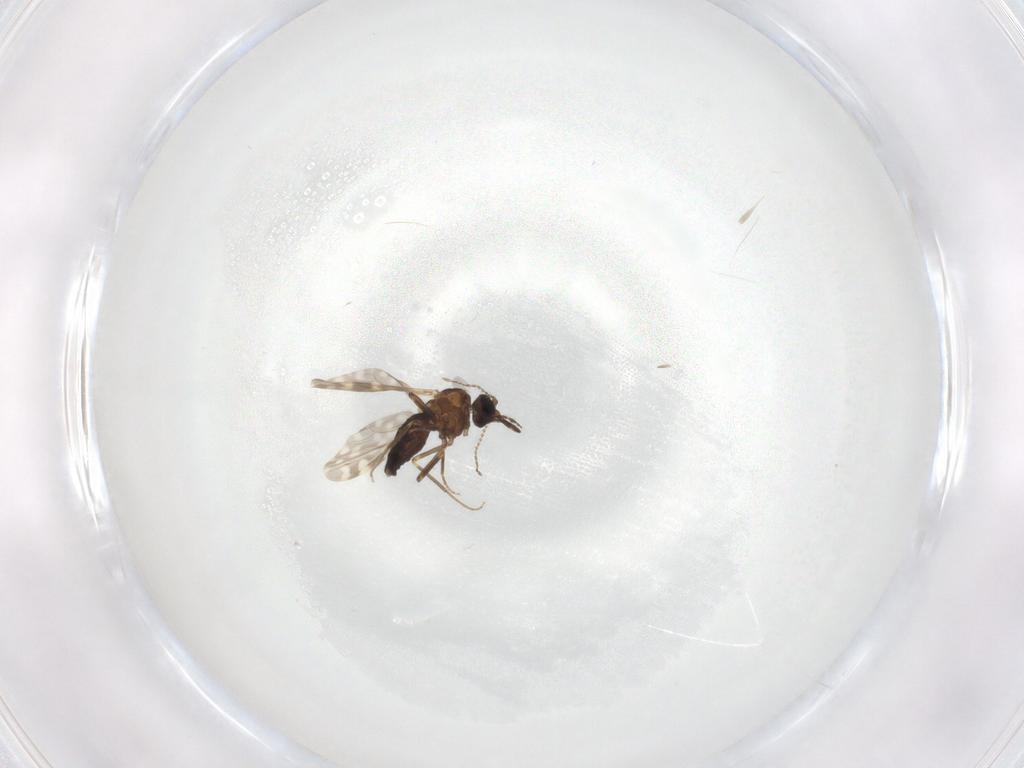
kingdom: Animalia
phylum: Arthropoda
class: Insecta
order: Diptera
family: Ceratopogonidae
